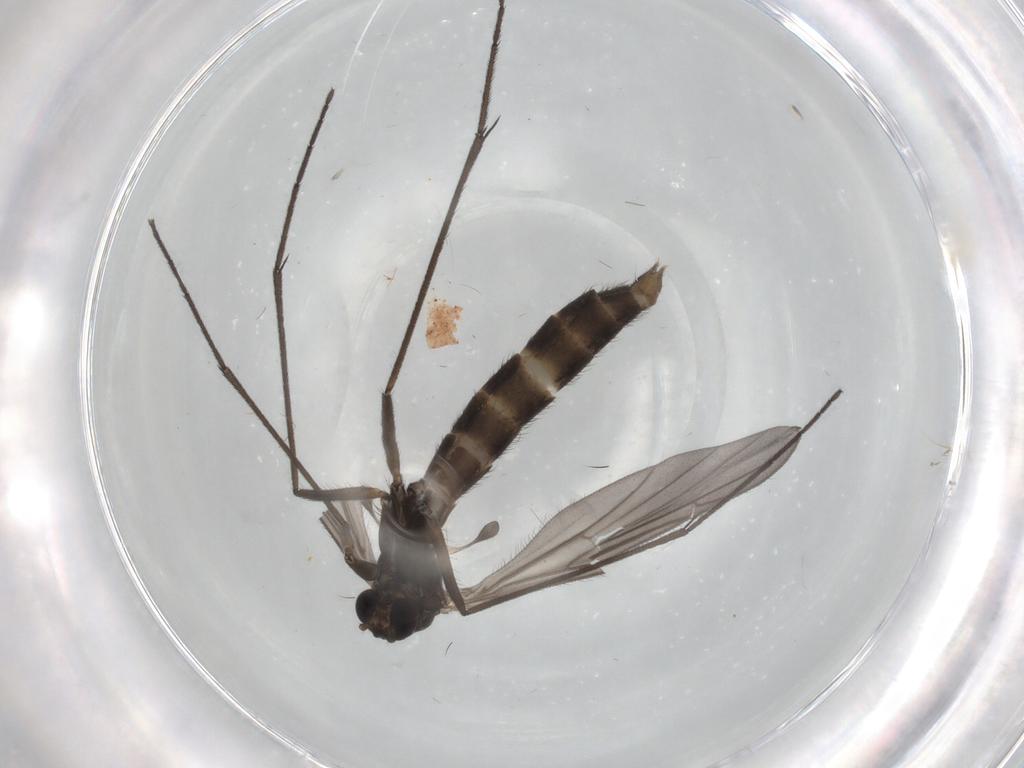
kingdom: Animalia
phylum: Arthropoda
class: Insecta
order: Diptera
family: Keroplatidae
